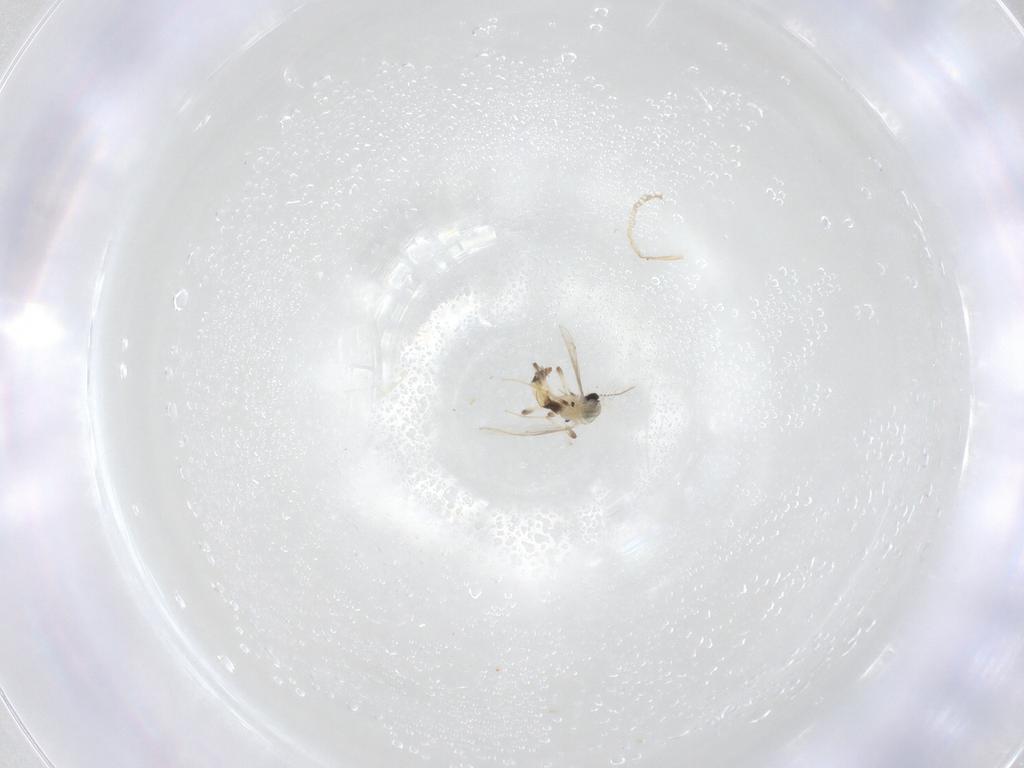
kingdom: Animalia
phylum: Arthropoda
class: Insecta
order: Diptera
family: Chironomidae
